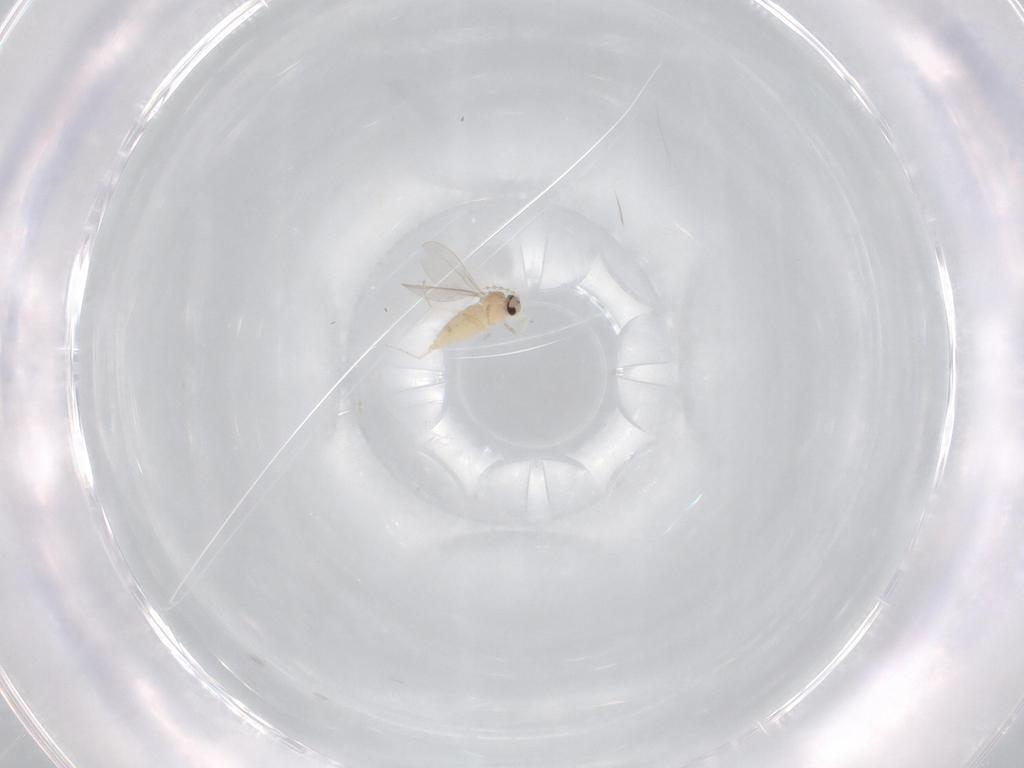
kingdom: Animalia
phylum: Arthropoda
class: Insecta
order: Diptera
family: Cecidomyiidae
